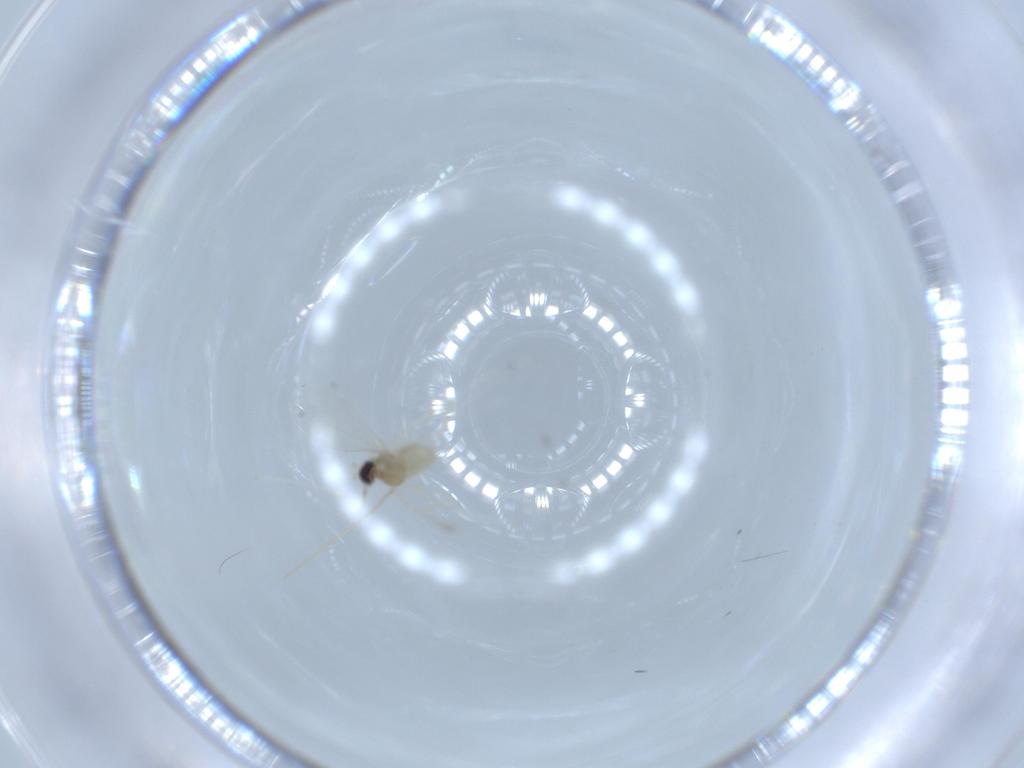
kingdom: Animalia
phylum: Arthropoda
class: Insecta
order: Diptera
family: Cecidomyiidae
